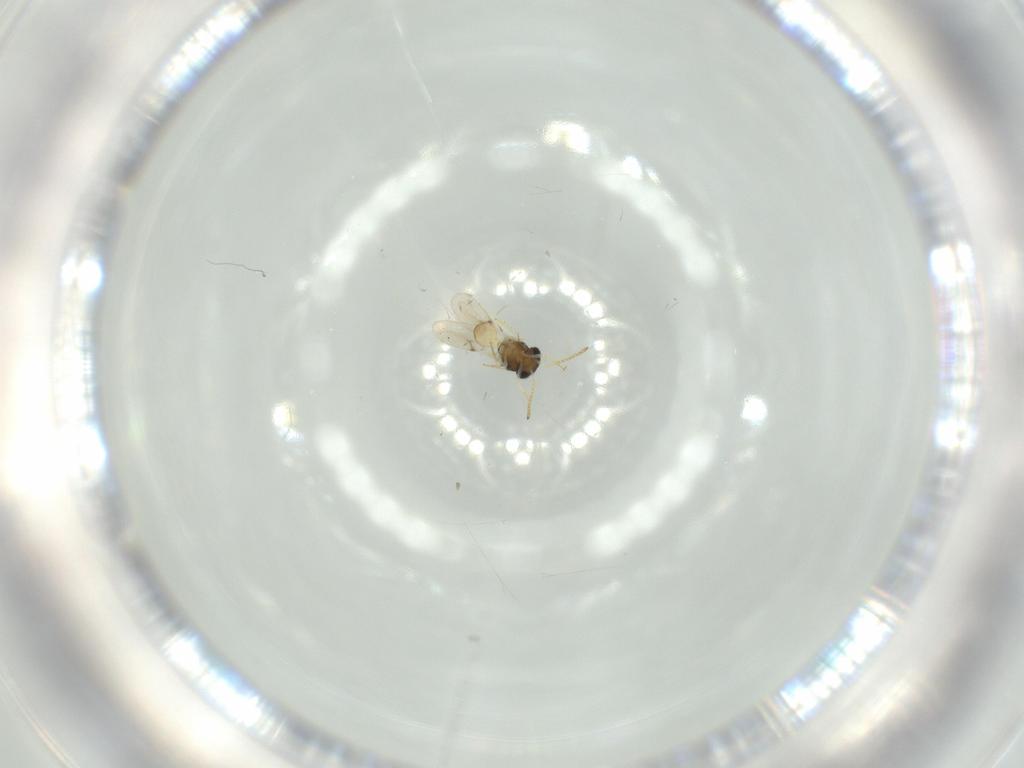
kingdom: Animalia
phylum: Arthropoda
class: Insecta
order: Hymenoptera
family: Scelionidae
